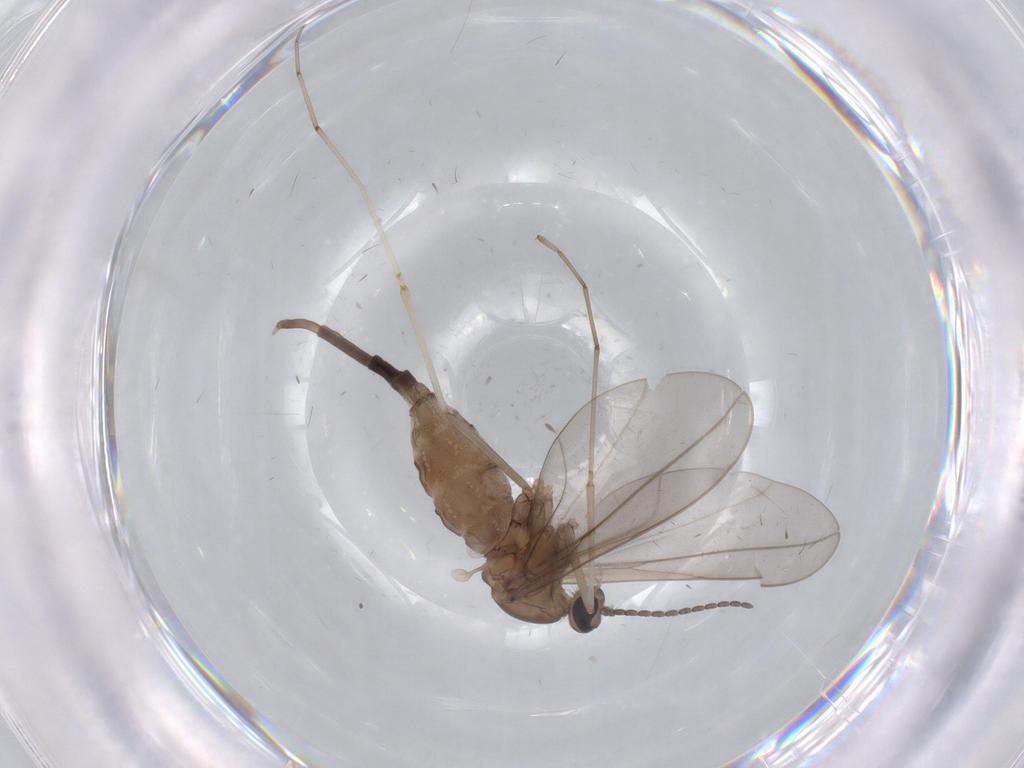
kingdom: Animalia
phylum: Arthropoda
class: Insecta
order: Diptera
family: Cecidomyiidae
